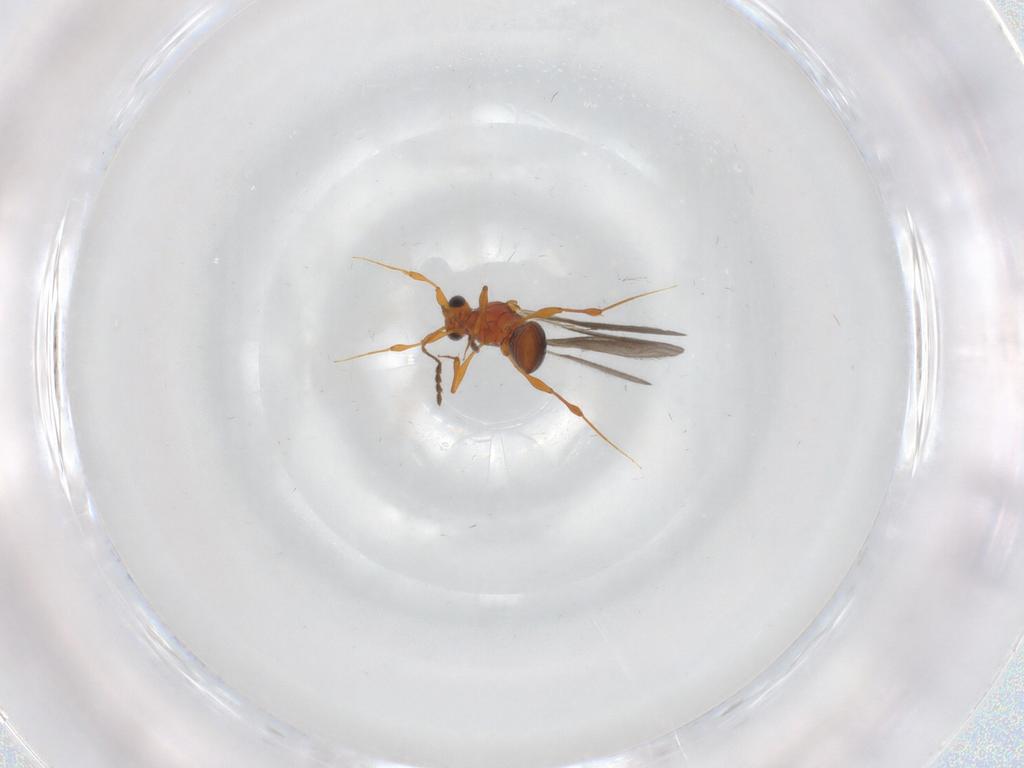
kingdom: Animalia
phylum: Arthropoda
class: Insecta
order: Hymenoptera
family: Platygastridae
